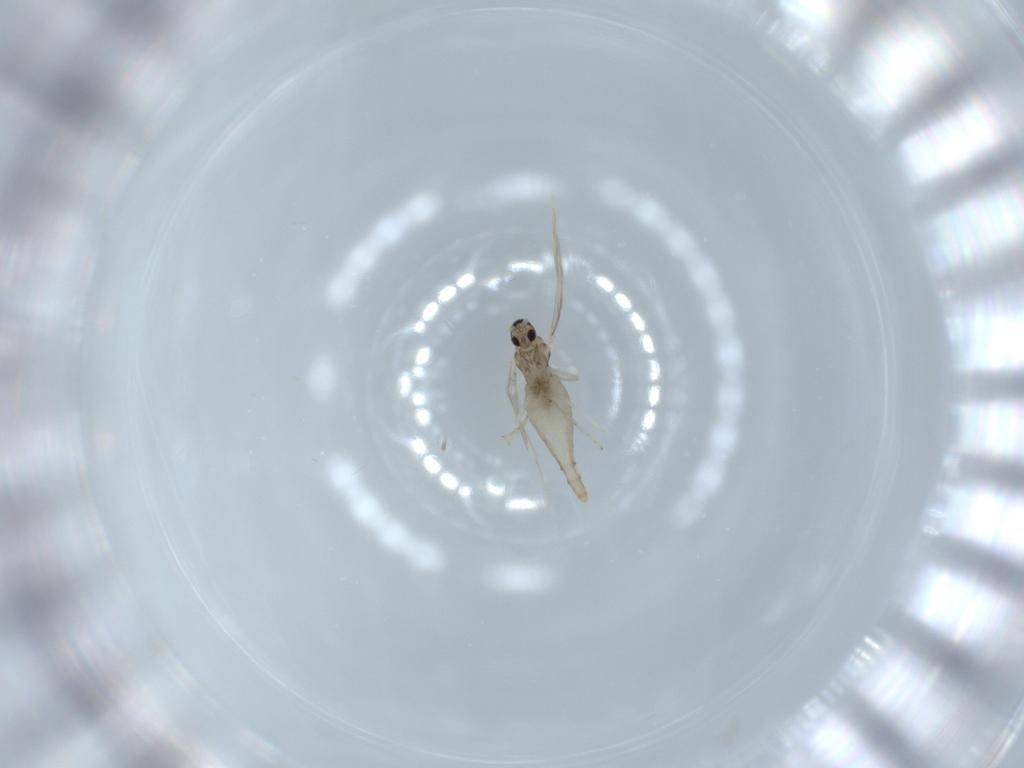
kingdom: Animalia
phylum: Arthropoda
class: Insecta
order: Diptera
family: Cecidomyiidae
